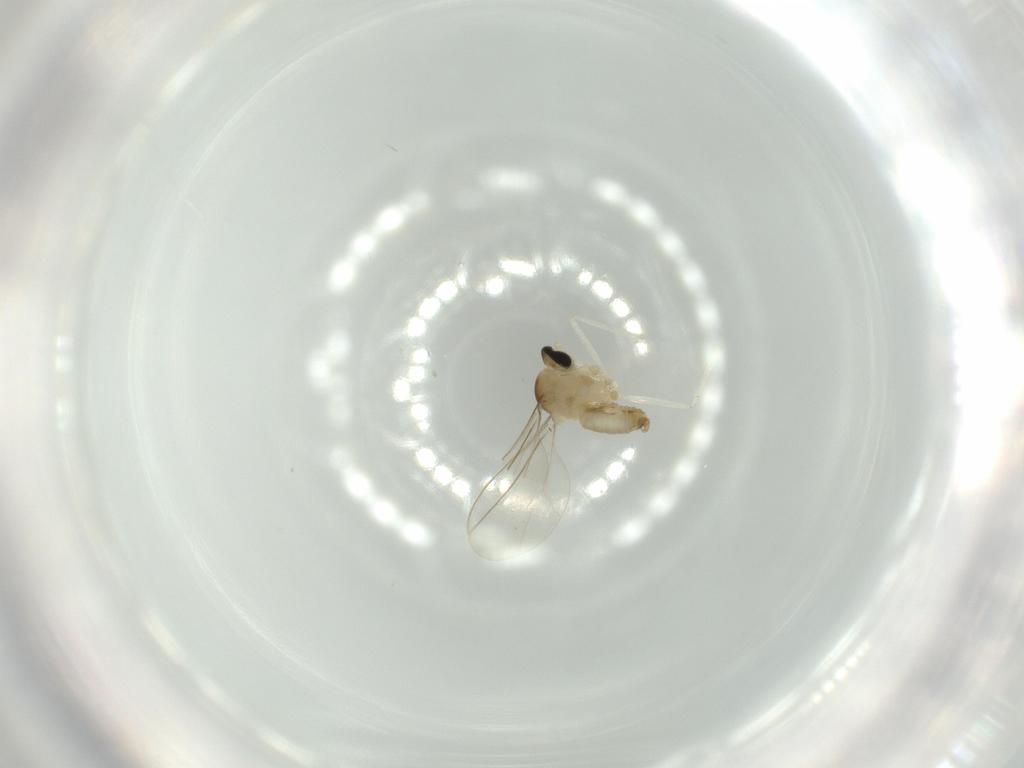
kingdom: Animalia
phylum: Arthropoda
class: Insecta
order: Diptera
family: Sciaridae
